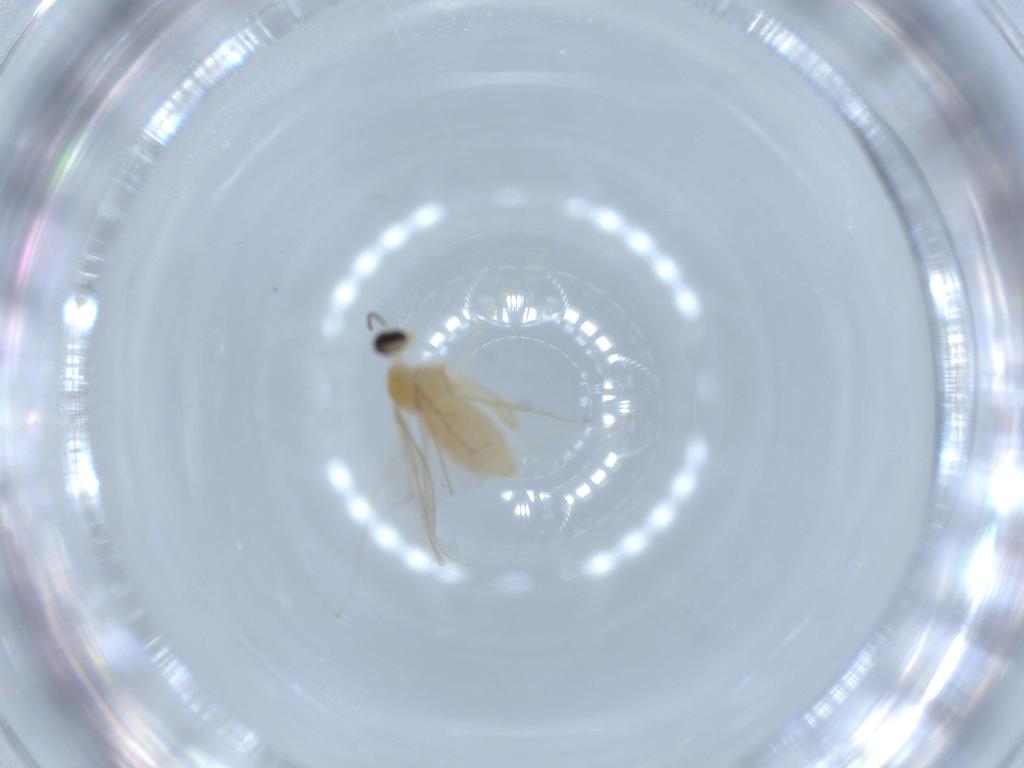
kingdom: Animalia
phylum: Arthropoda
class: Insecta
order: Diptera
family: Cecidomyiidae
